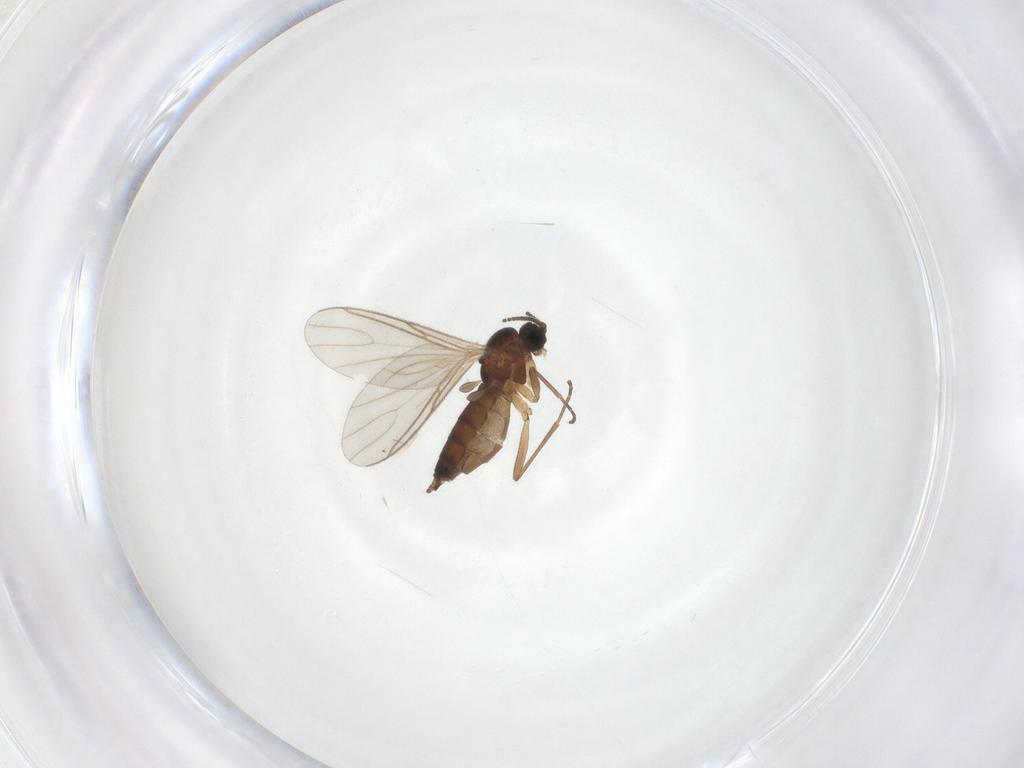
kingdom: Animalia
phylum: Arthropoda
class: Insecta
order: Diptera
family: Sciaridae
